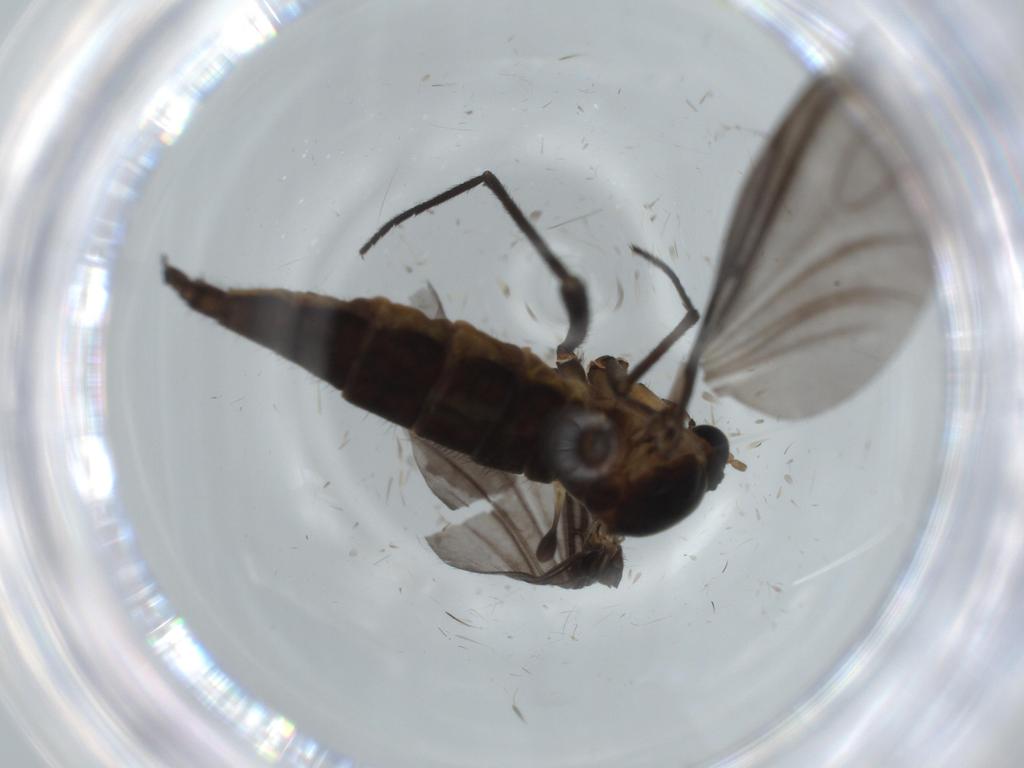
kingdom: Animalia
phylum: Arthropoda
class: Insecta
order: Diptera
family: Sciaridae
